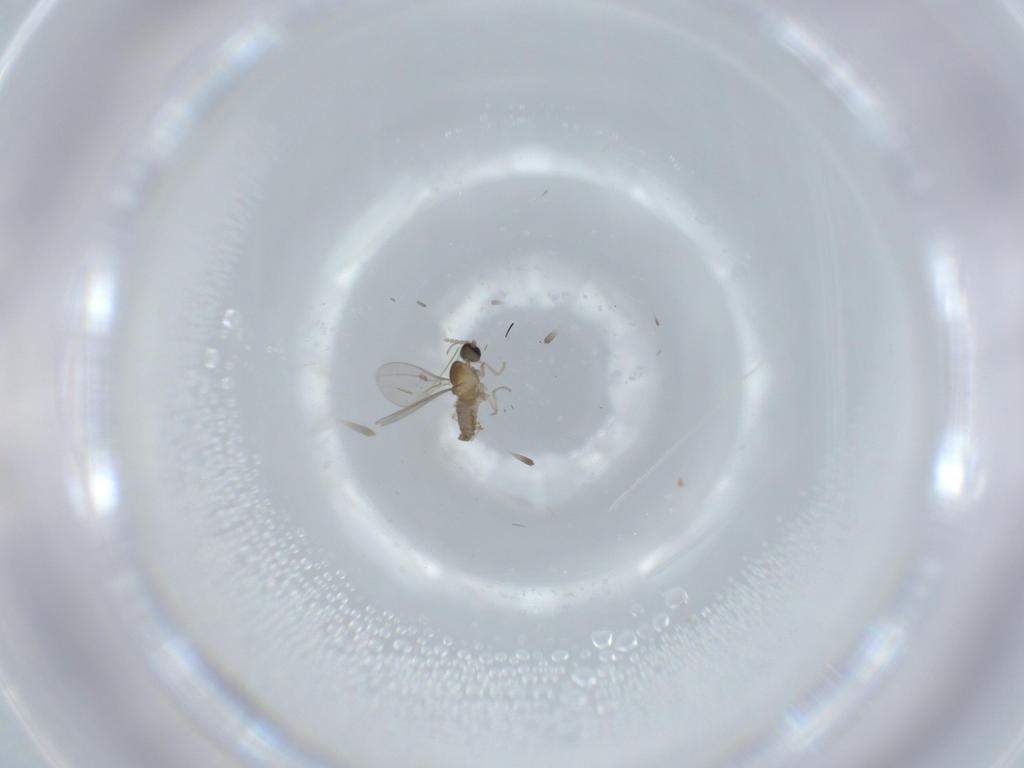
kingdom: Animalia
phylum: Arthropoda
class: Insecta
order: Diptera
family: Cecidomyiidae
